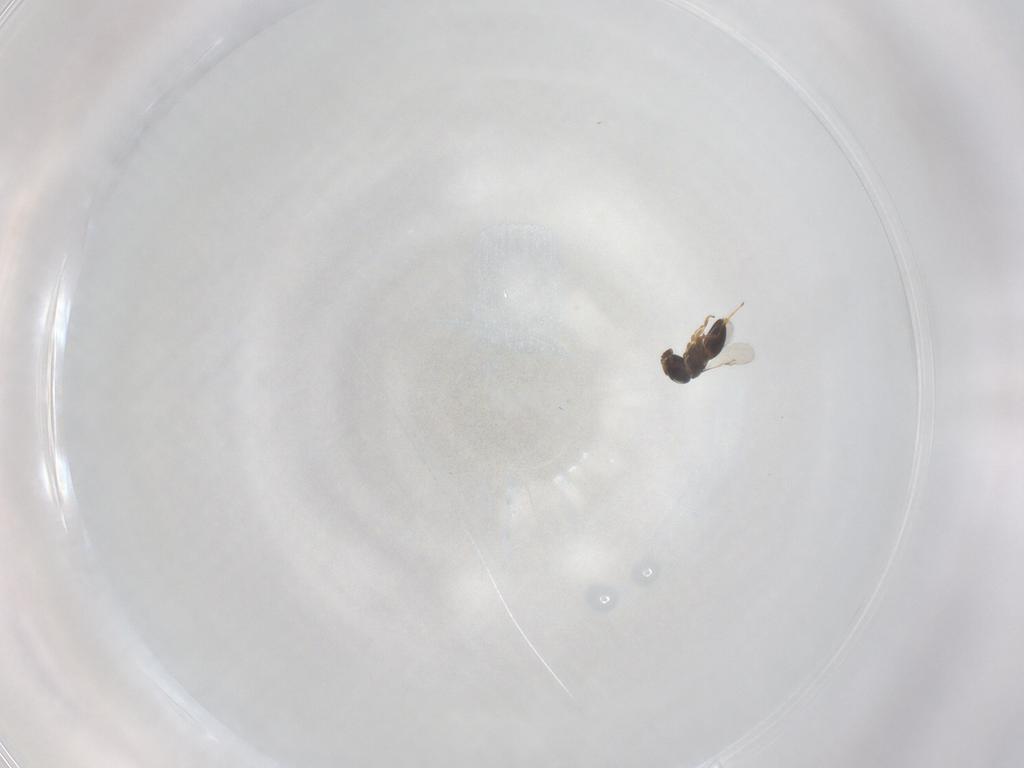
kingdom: Animalia
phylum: Arthropoda
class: Insecta
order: Hymenoptera
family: Scelionidae
